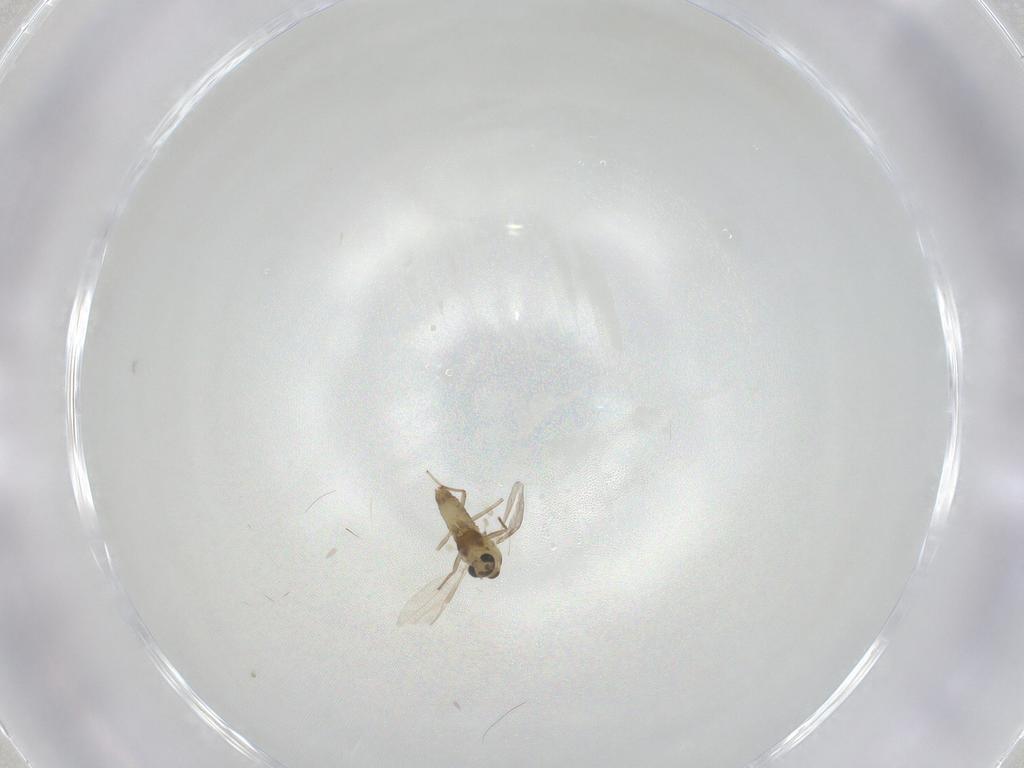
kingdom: Animalia
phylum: Arthropoda
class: Insecta
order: Diptera
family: Chironomidae
